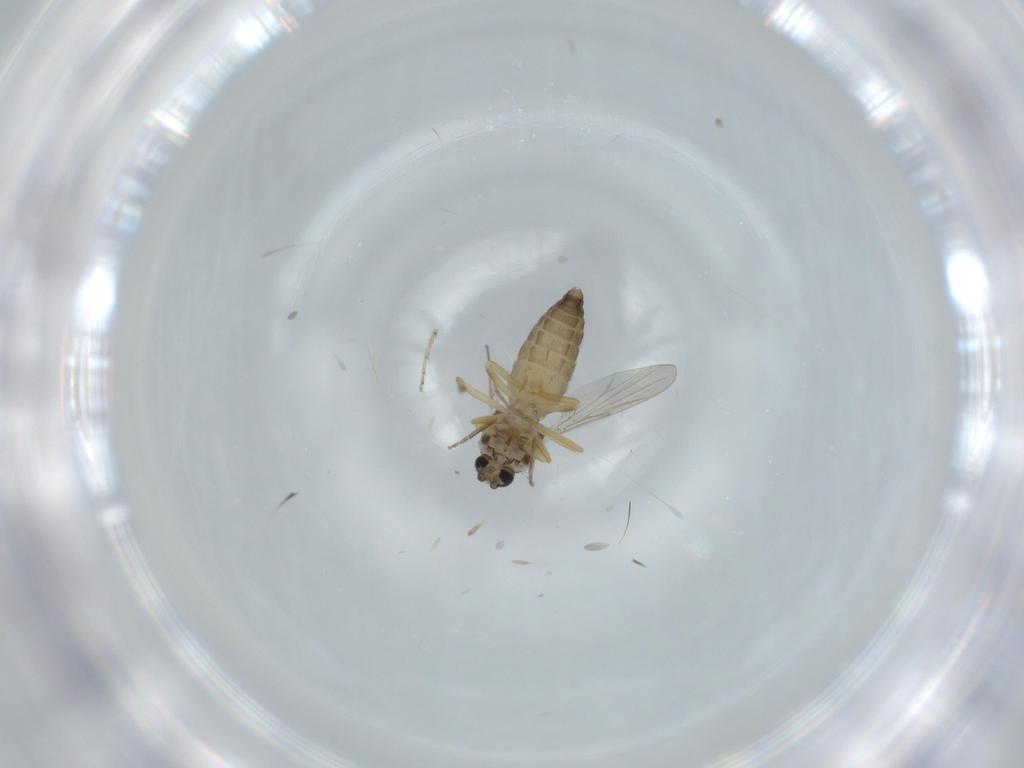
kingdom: Animalia
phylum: Arthropoda
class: Insecta
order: Diptera
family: Ceratopogonidae
